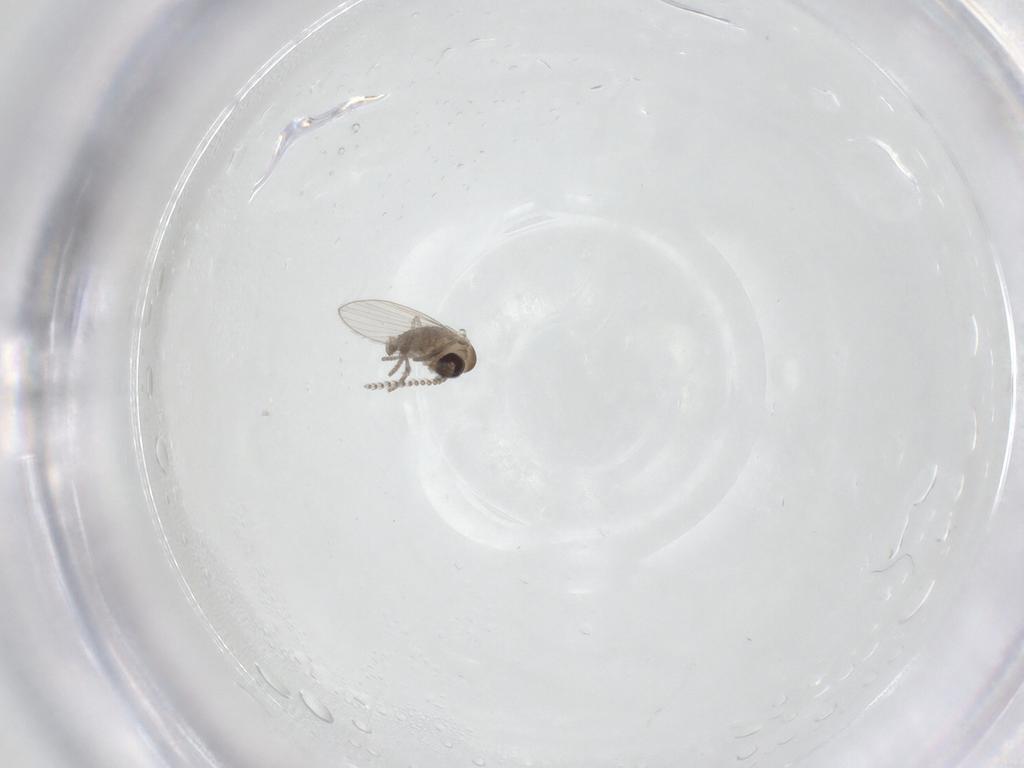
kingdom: Animalia
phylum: Arthropoda
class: Insecta
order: Diptera
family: Psychodidae
